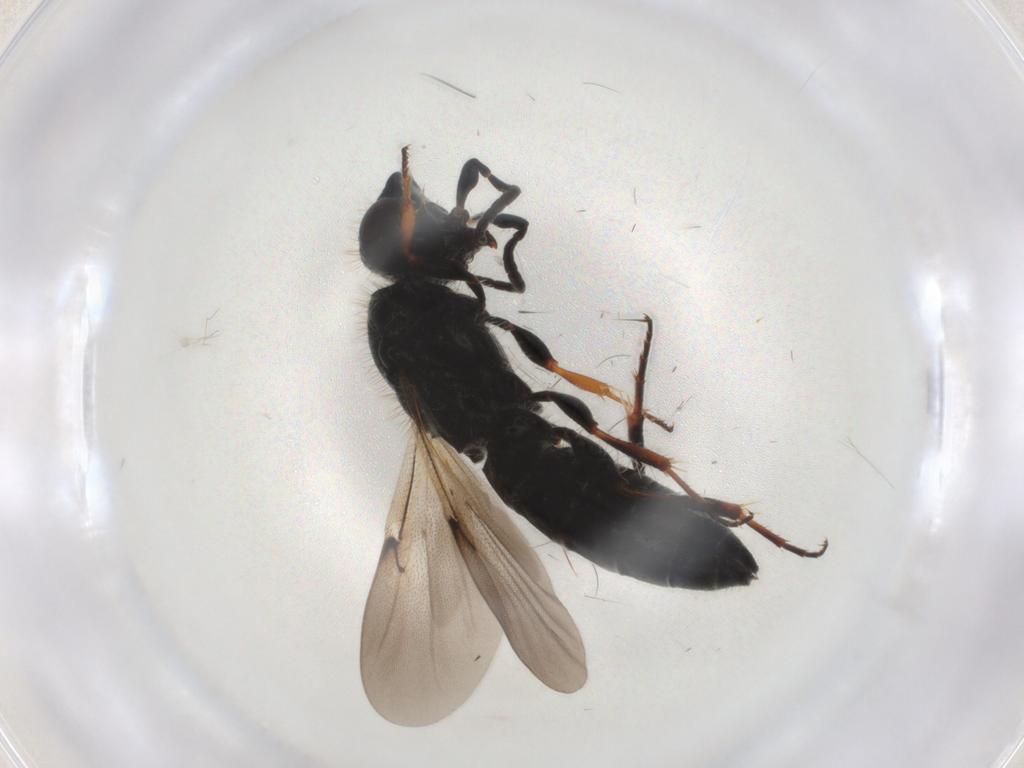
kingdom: Animalia
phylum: Arthropoda
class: Insecta
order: Hymenoptera
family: Scelionidae
